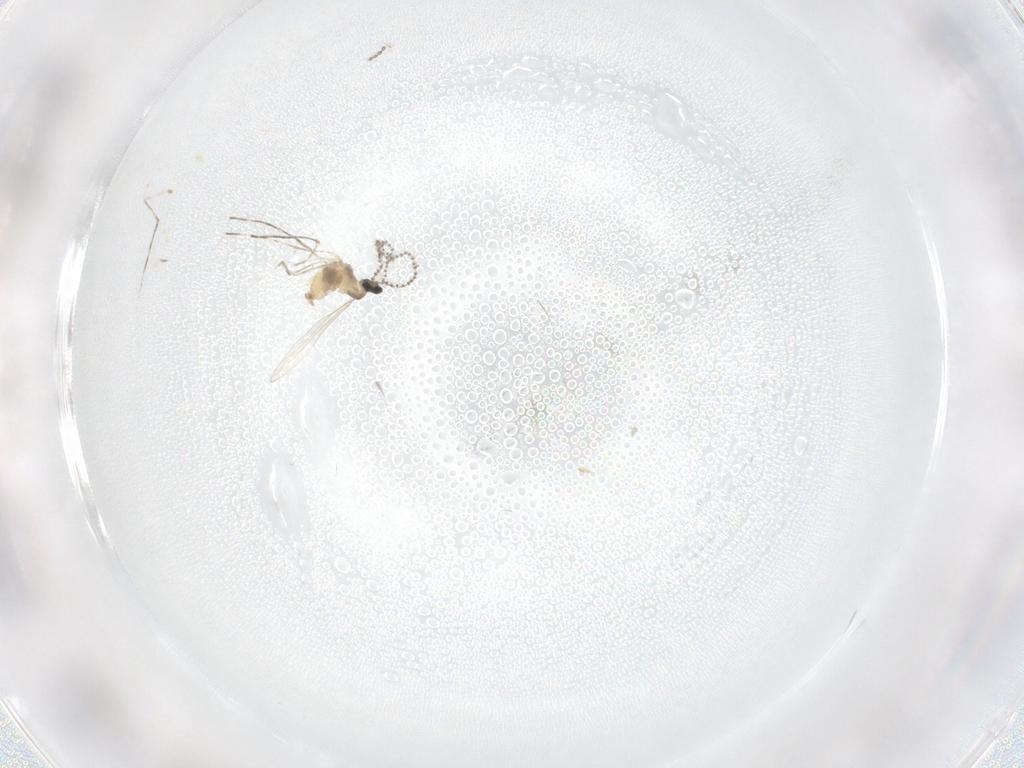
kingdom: Animalia
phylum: Arthropoda
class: Insecta
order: Diptera
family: Cecidomyiidae
